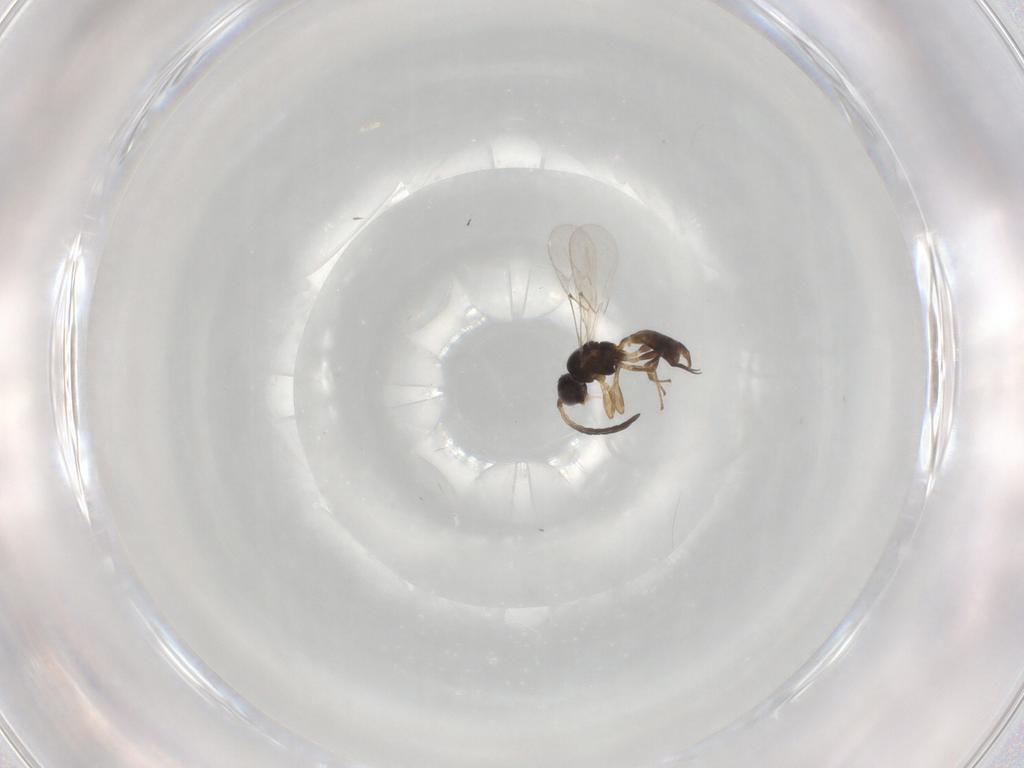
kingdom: Animalia
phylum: Arthropoda
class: Insecta
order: Hymenoptera
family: Braconidae
